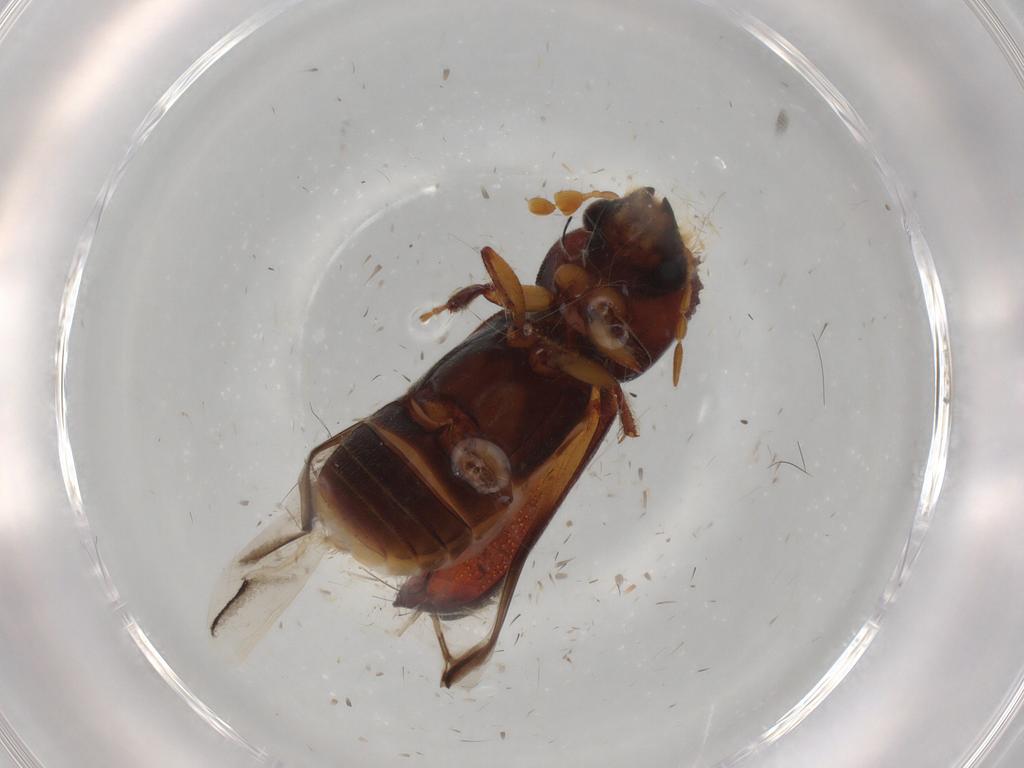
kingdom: Animalia
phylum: Arthropoda
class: Insecta
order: Coleoptera
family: Bostrichidae
